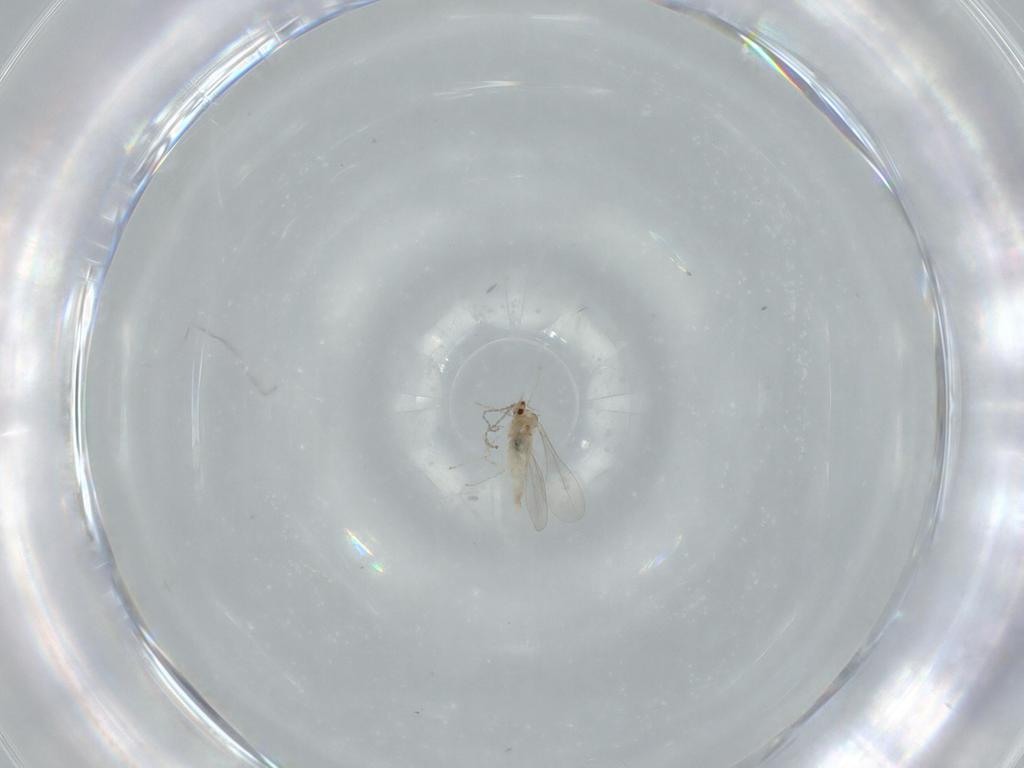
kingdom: Animalia
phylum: Arthropoda
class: Insecta
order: Diptera
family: Cecidomyiidae
